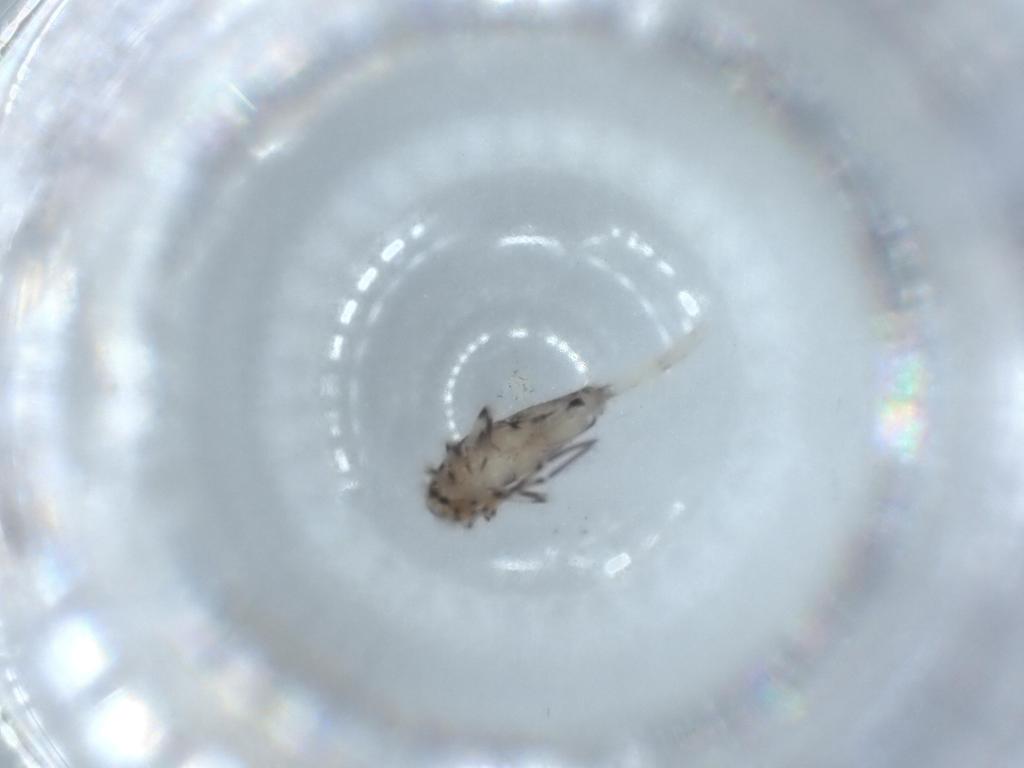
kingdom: Animalia
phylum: Arthropoda
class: Collembola
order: Entomobryomorpha
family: Entomobryidae
